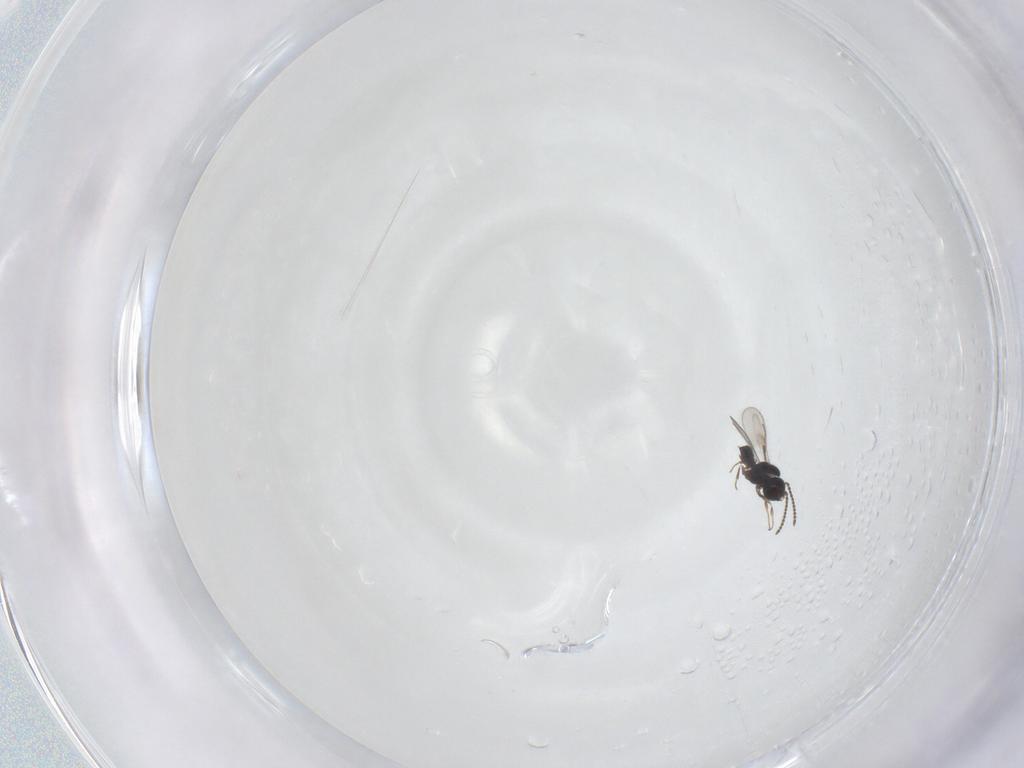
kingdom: Animalia
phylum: Arthropoda
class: Insecta
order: Hymenoptera
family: Scelionidae
